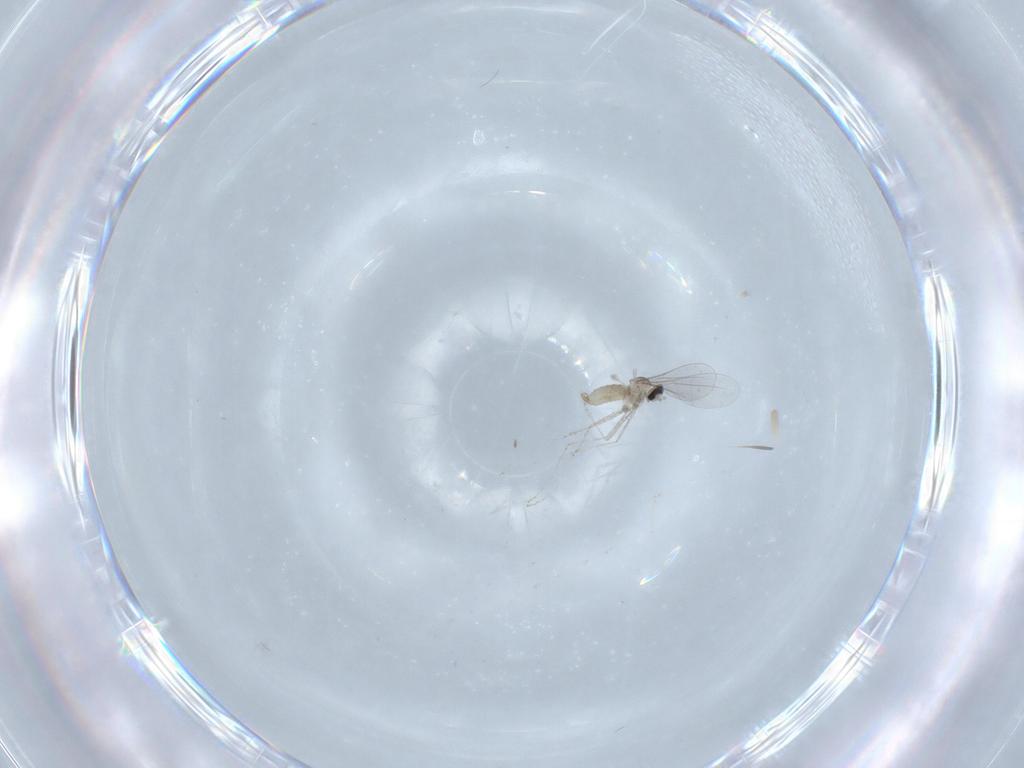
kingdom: Animalia
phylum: Arthropoda
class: Insecta
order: Diptera
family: Cecidomyiidae
